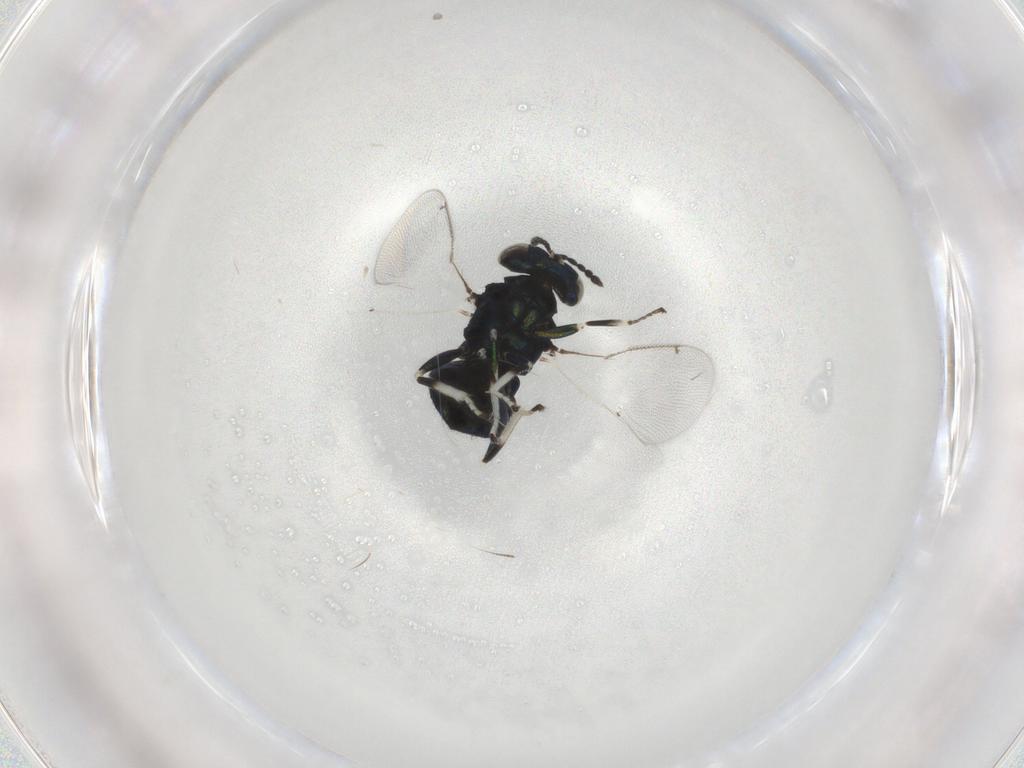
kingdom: Animalia
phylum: Arthropoda
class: Insecta
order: Hymenoptera
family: Aphelinidae
